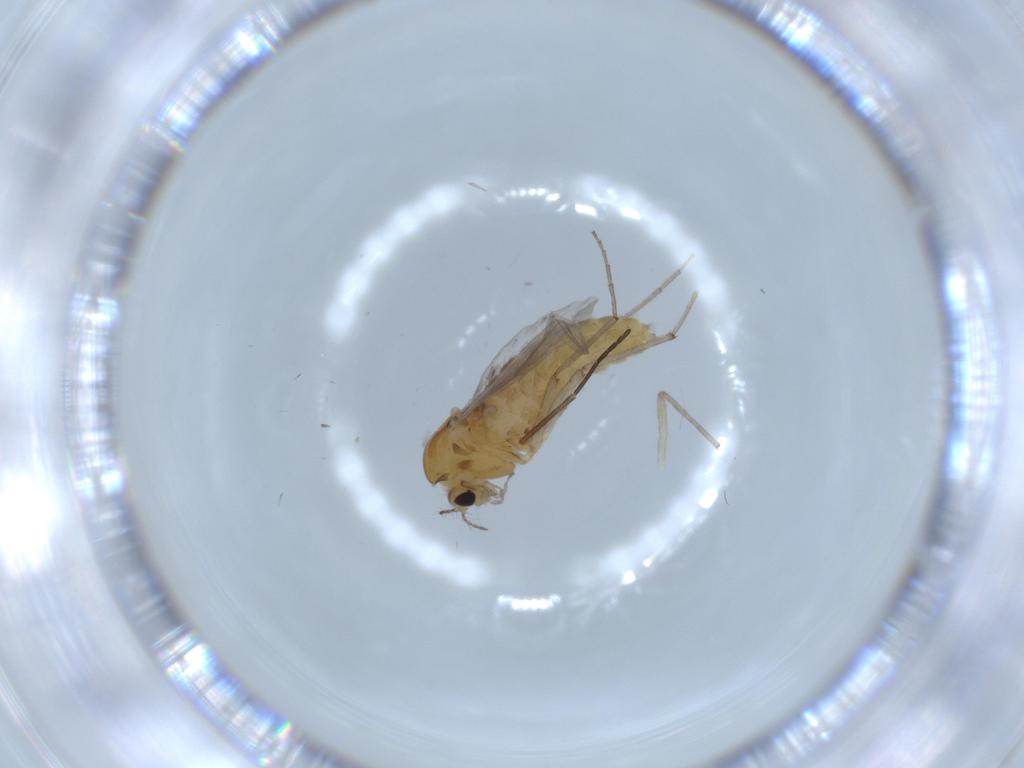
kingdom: Animalia
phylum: Arthropoda
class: Insecta
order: Diptera
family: Chironomidae
